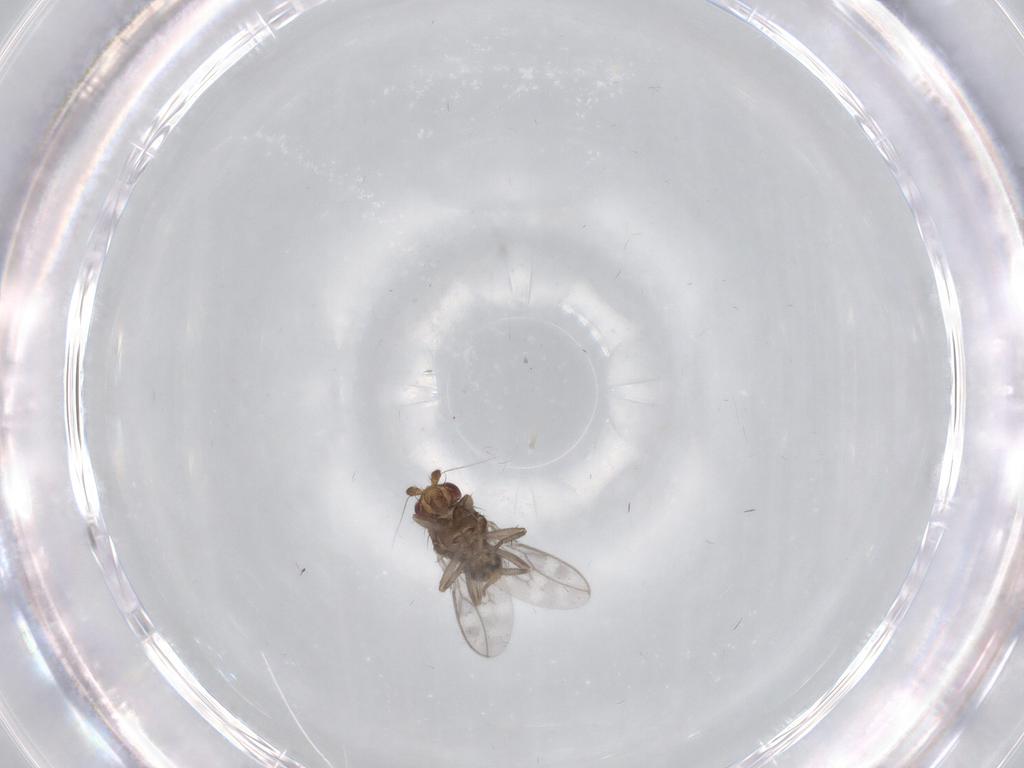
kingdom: Animalia
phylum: Arthropoda
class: Insecta
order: Diptera
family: Sphaeroceridae
